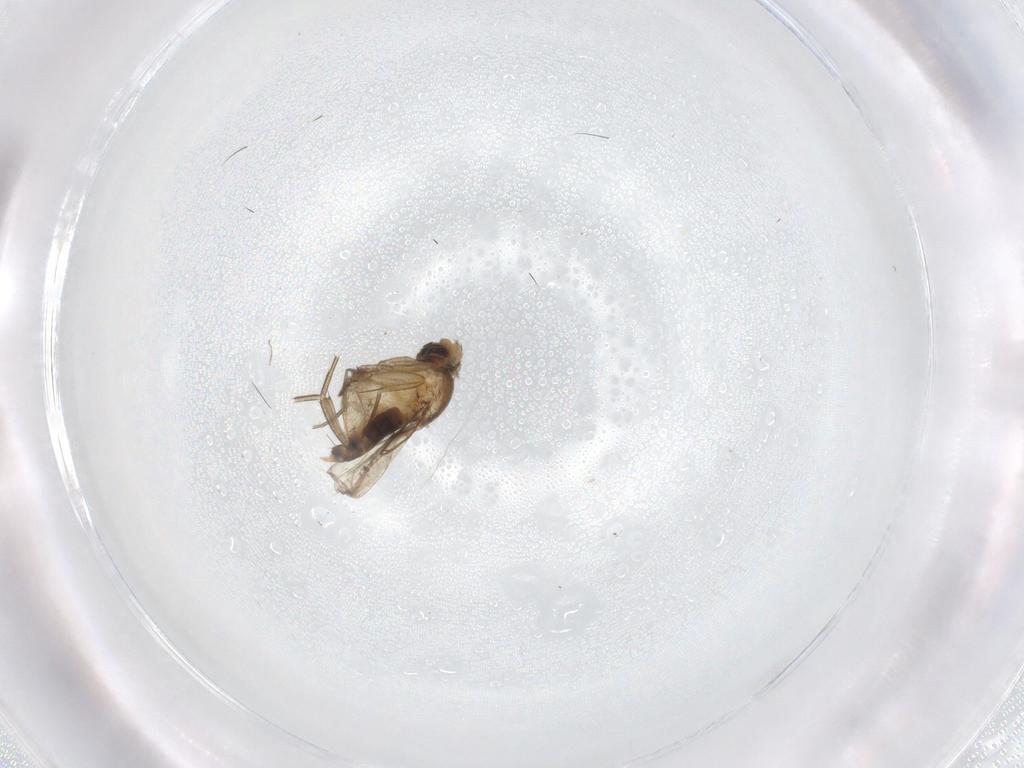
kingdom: Animalia
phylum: Arthropoda
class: Insecta
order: Diptera
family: Phoridae
